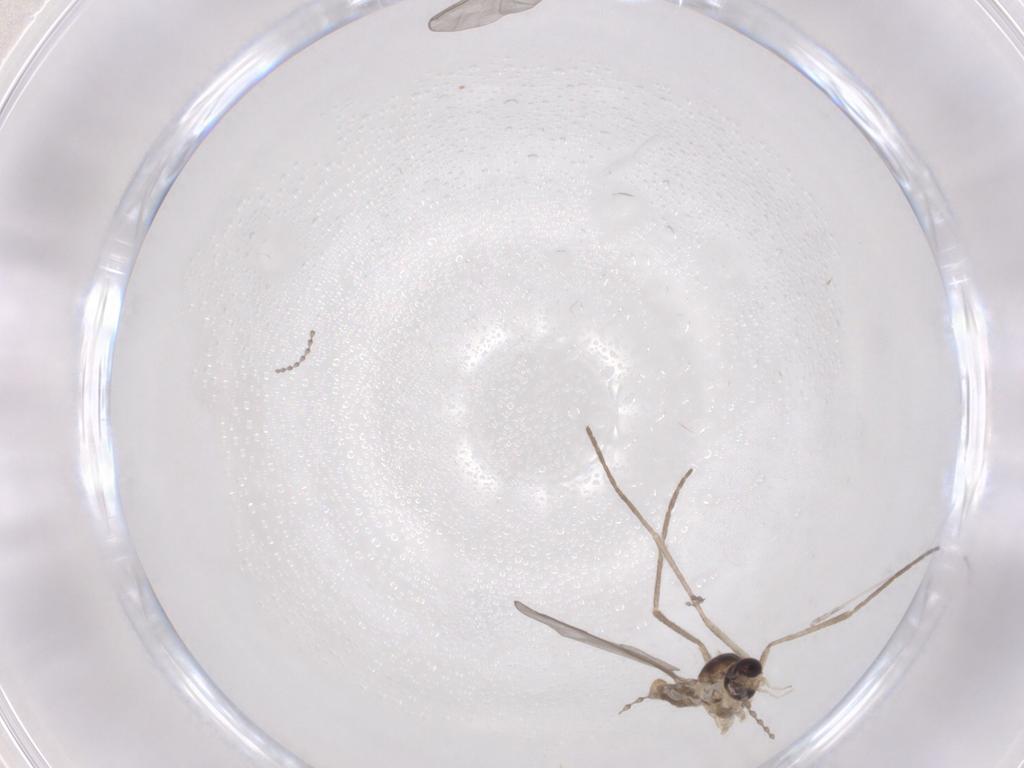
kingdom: Animalia
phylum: Arthropoda
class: Insecta
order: Diptera
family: Cecidomyiidae
